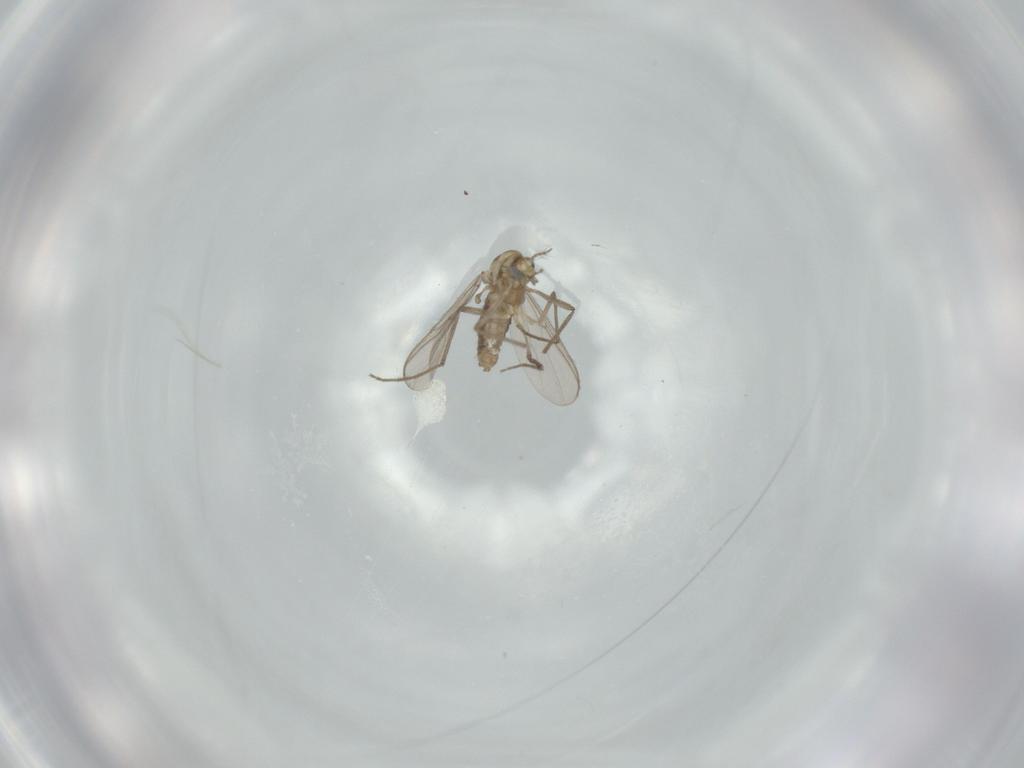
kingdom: Animalia
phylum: Arthropoda
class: Insecta
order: Diptera
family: Chironomidae
